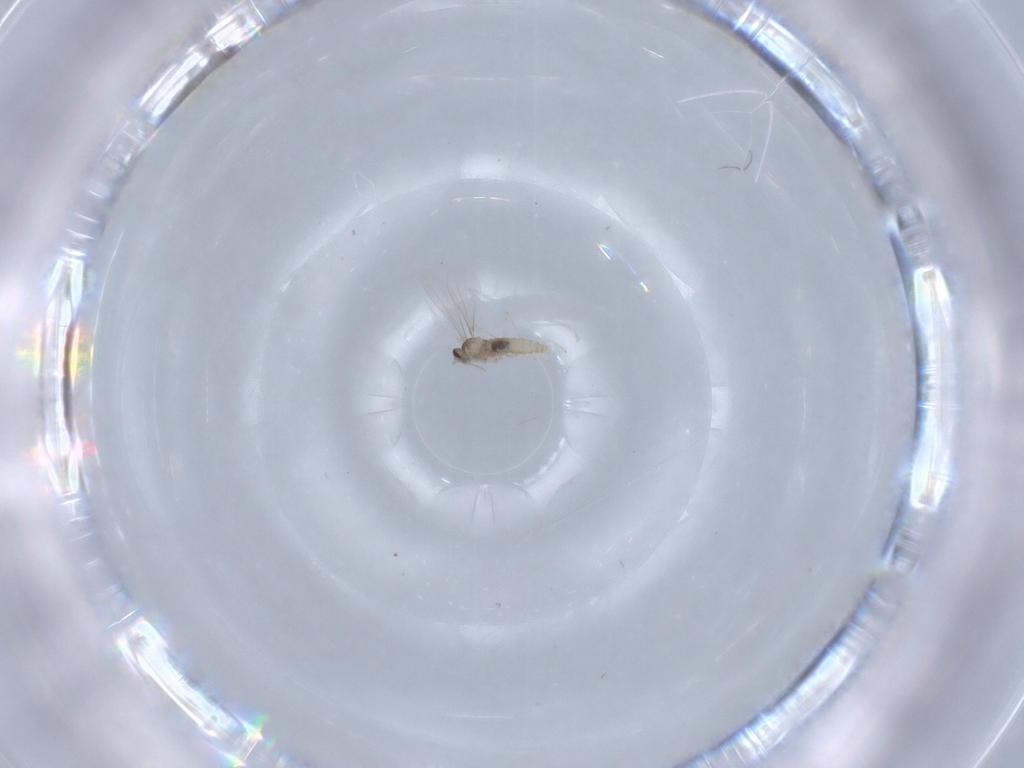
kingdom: Animalia
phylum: Arthropoda
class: Insecta
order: Diptera
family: Cecidomyiidae
